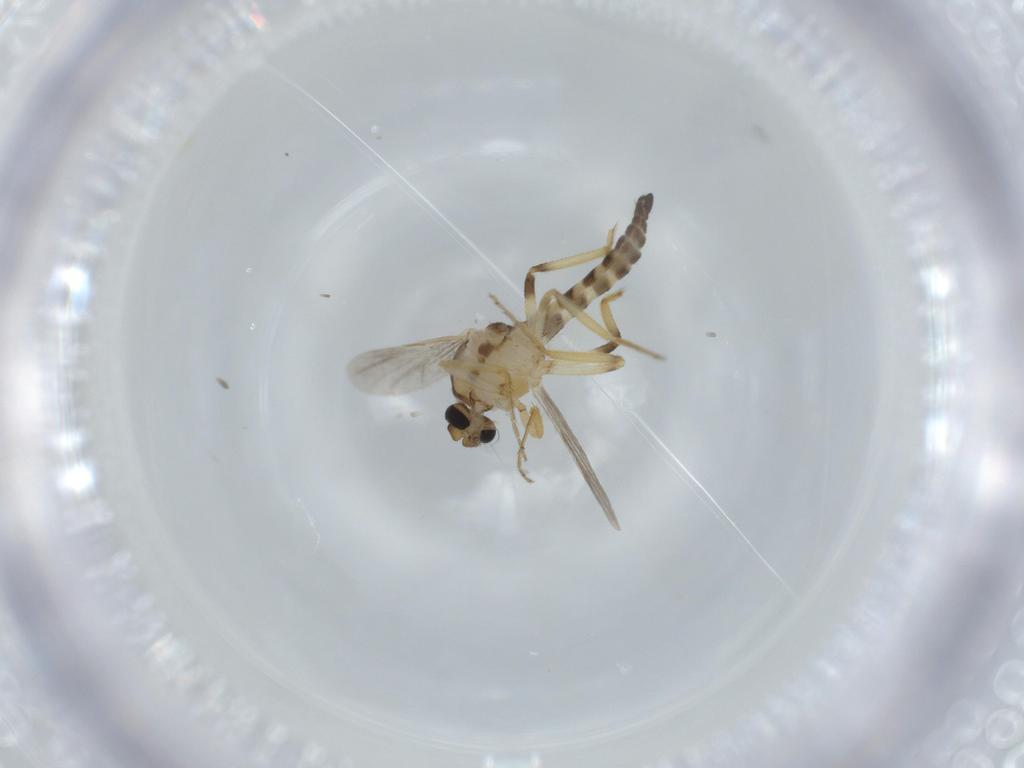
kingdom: Animalia
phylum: Arthropoda
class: Insecta
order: Diptera
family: Ceratopogonidae
